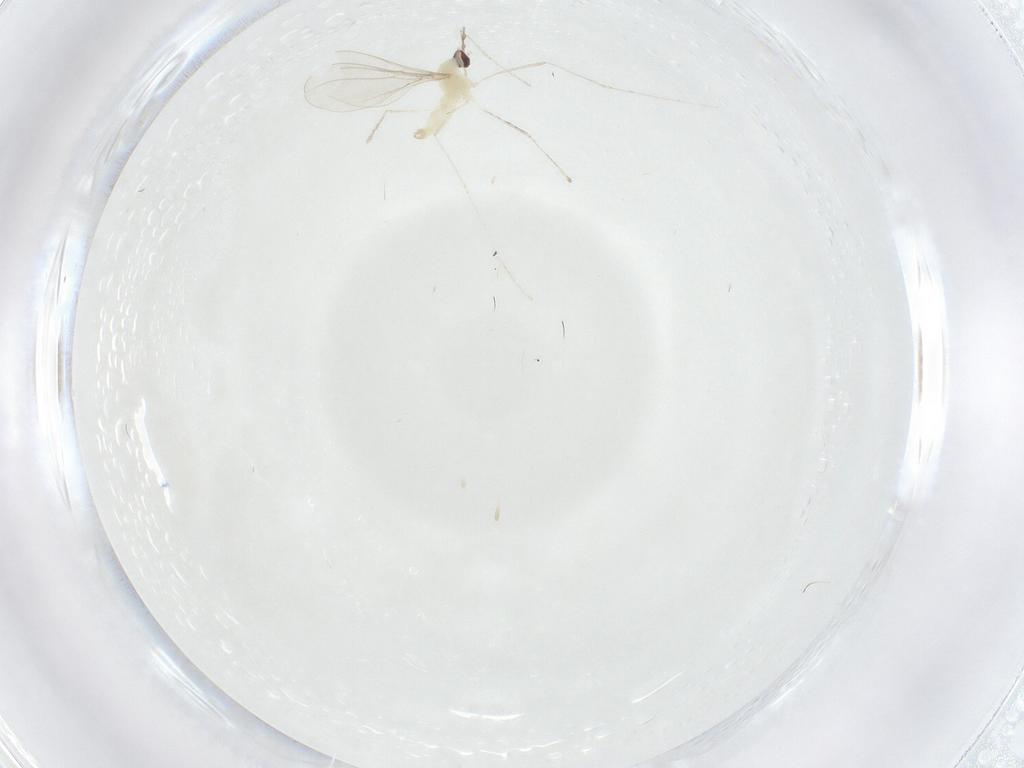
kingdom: Animalia
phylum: Arthropoda
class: Insecta
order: Diptera
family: Cecidomyiidae
